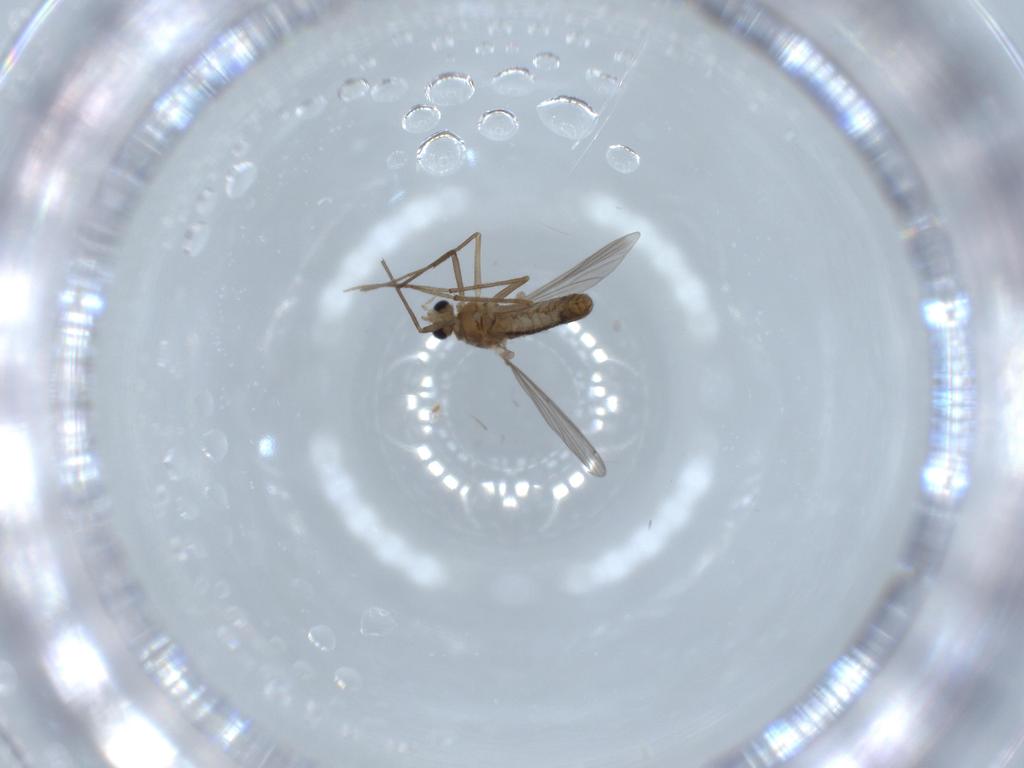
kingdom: Animalia
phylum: Arthropoda
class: Insecta
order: Diptera
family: Chironomidae
